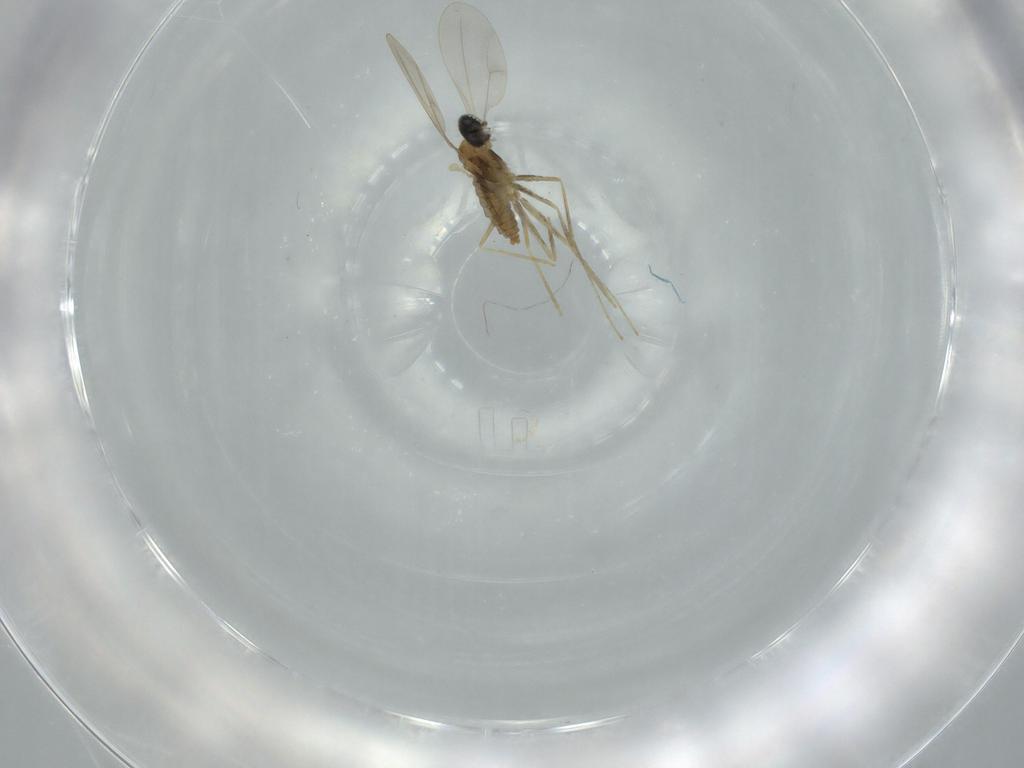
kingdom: Animalia
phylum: Arthropoda
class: Insecta
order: Diptera
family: Cecidomyiidae
